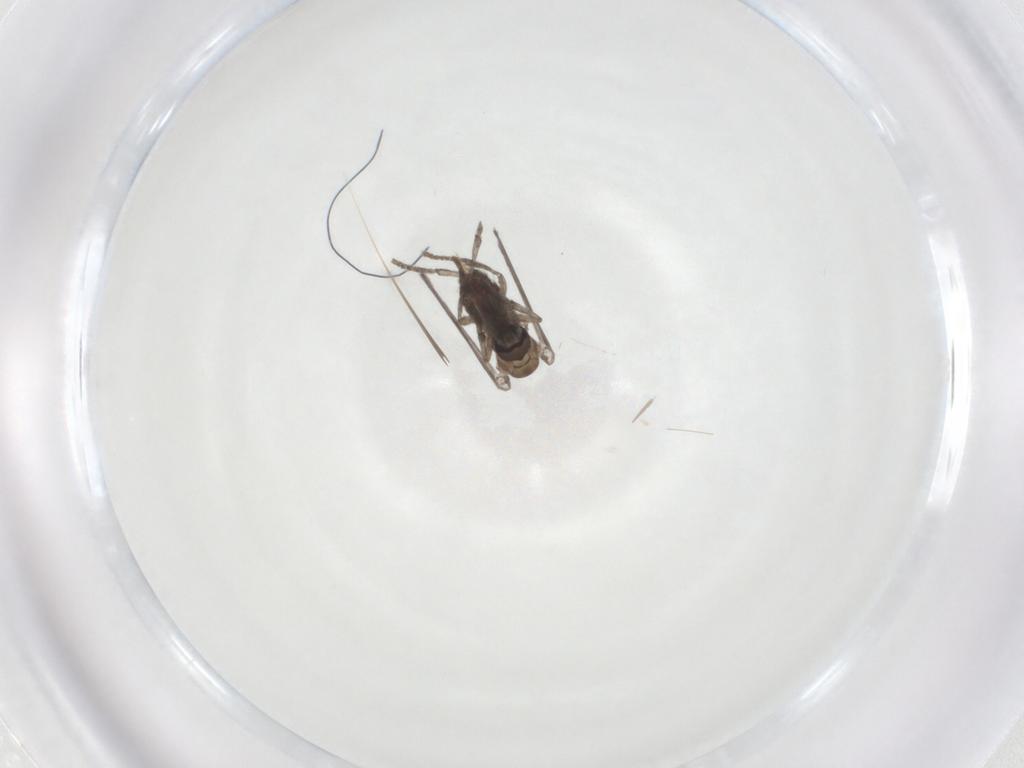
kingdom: Animalia
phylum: Arthropoda
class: Insecta
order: Diptera
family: Psychodidae
